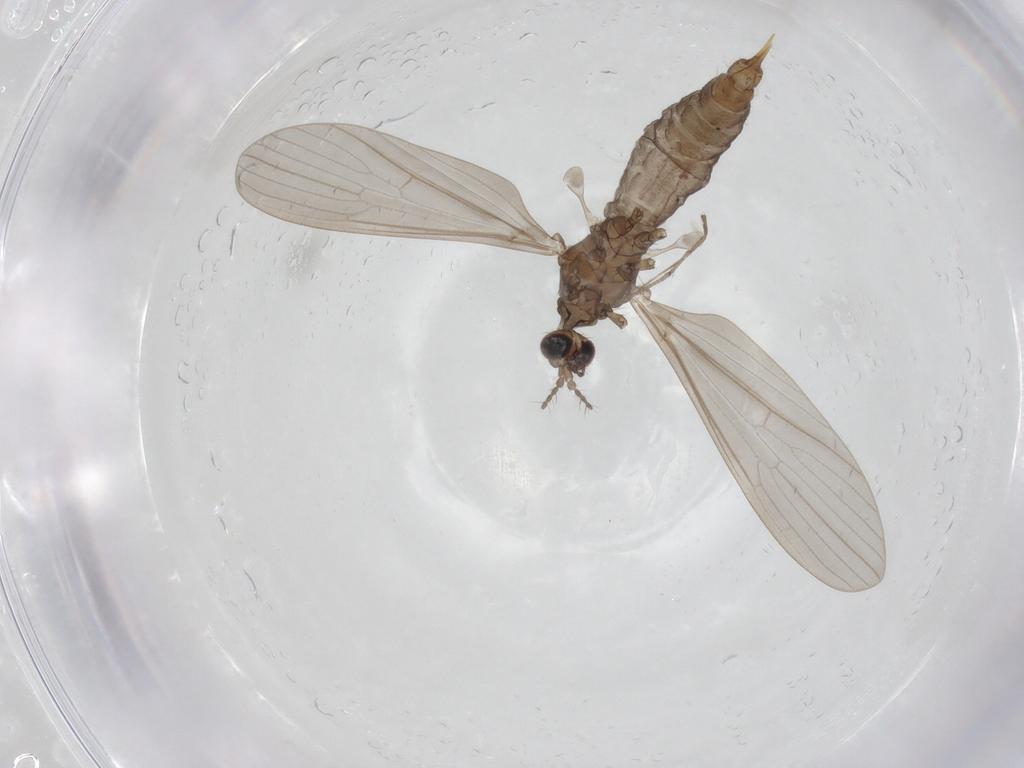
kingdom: Animalia
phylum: Arthropoda
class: Insecta
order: Diptera
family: Limoniidae
